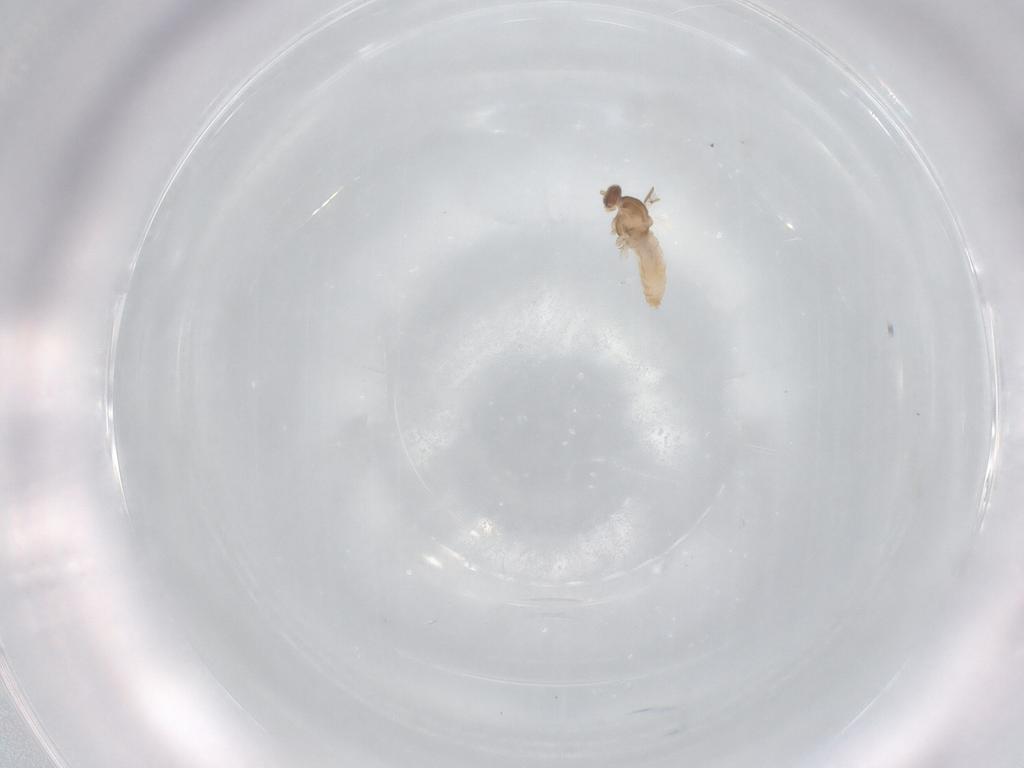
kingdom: Animalia
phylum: Arthropoda
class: Insecta
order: Diptera
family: Cecidomyiidae
